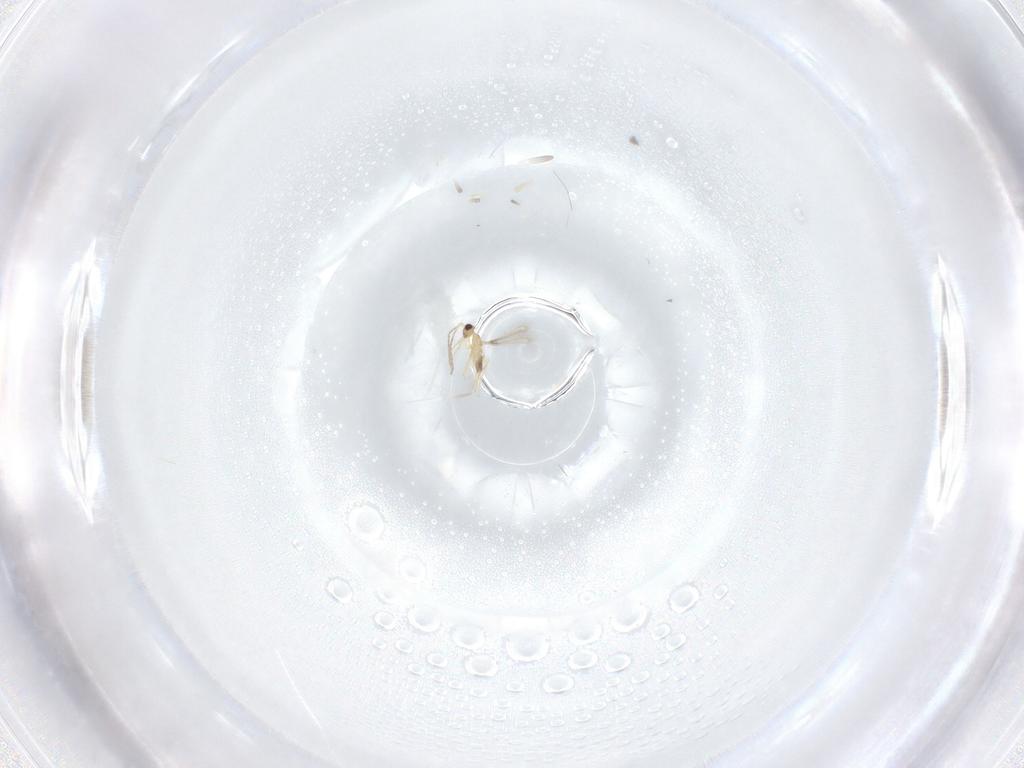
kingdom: Animalia
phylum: Arthropoda
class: Insecta
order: Hymenoptera
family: Mymaridae
